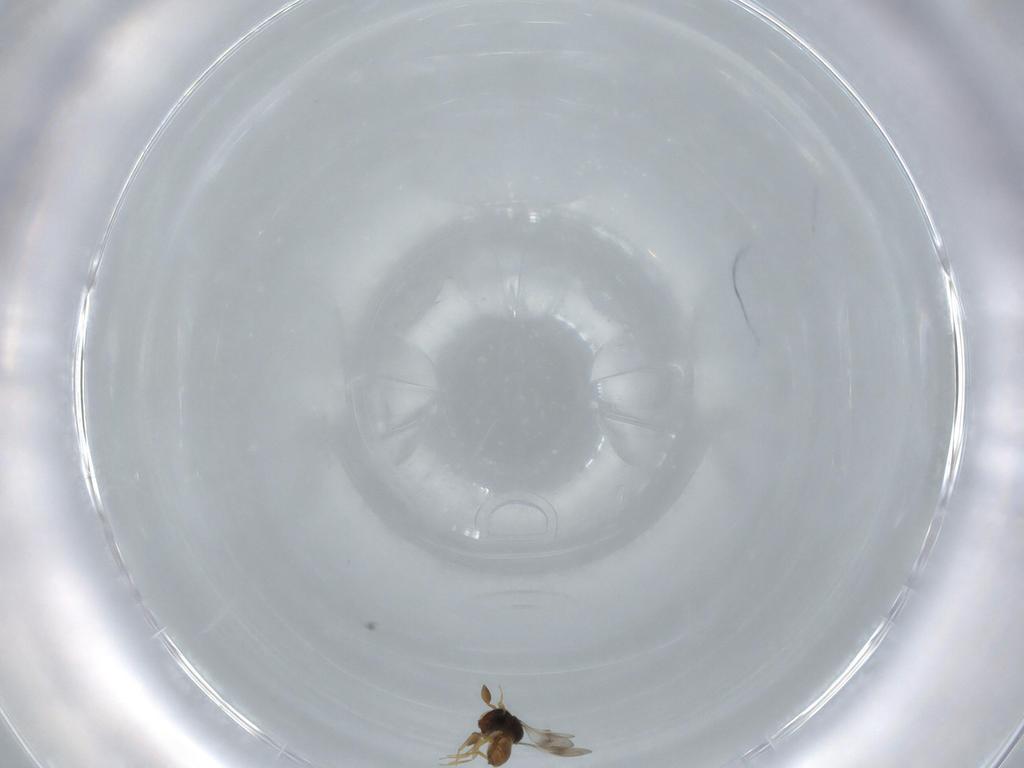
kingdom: Animalia
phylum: Arthropoda
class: Insecta
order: Hymenoptera
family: Scelionidae
